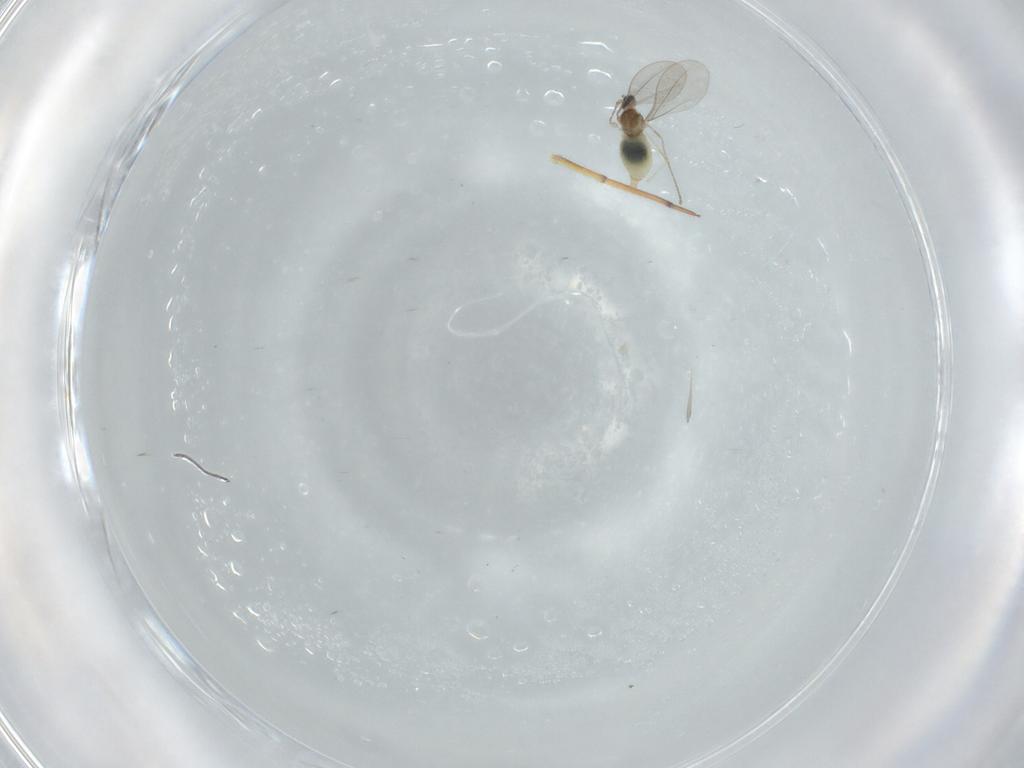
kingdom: Animalia
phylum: Arthropoda
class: Insecta
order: Diptera
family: Cecidomyiidae
